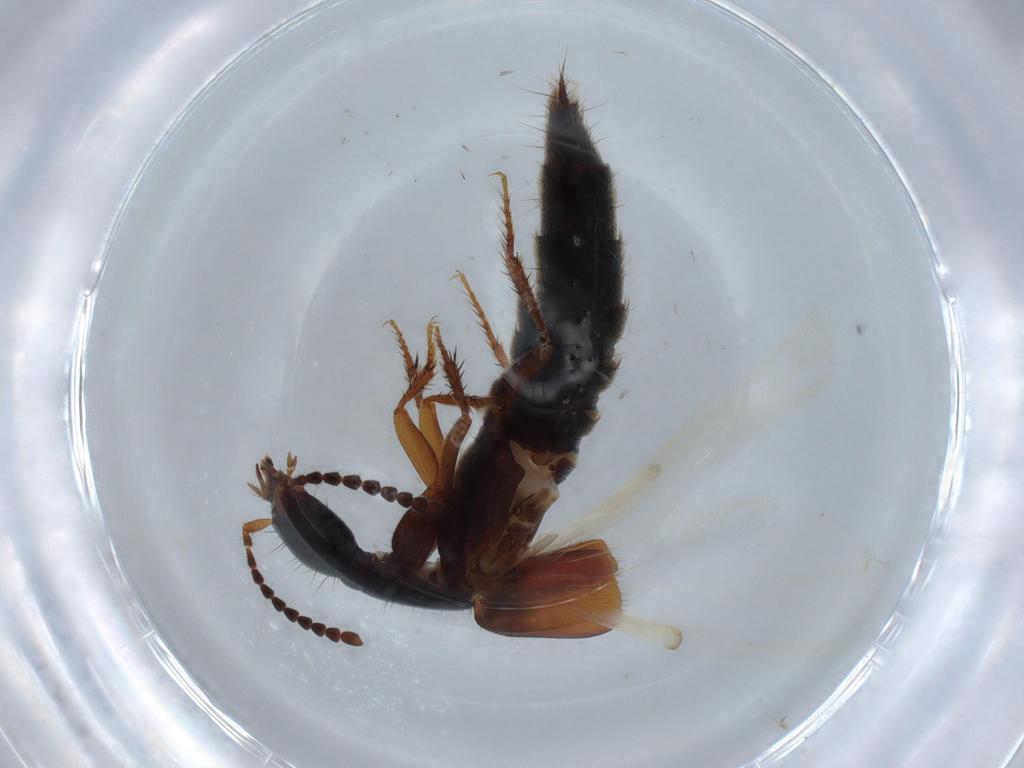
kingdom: Animalia
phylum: Arthropoda
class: Insecta
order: Coleoptera
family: Staphylinidae
